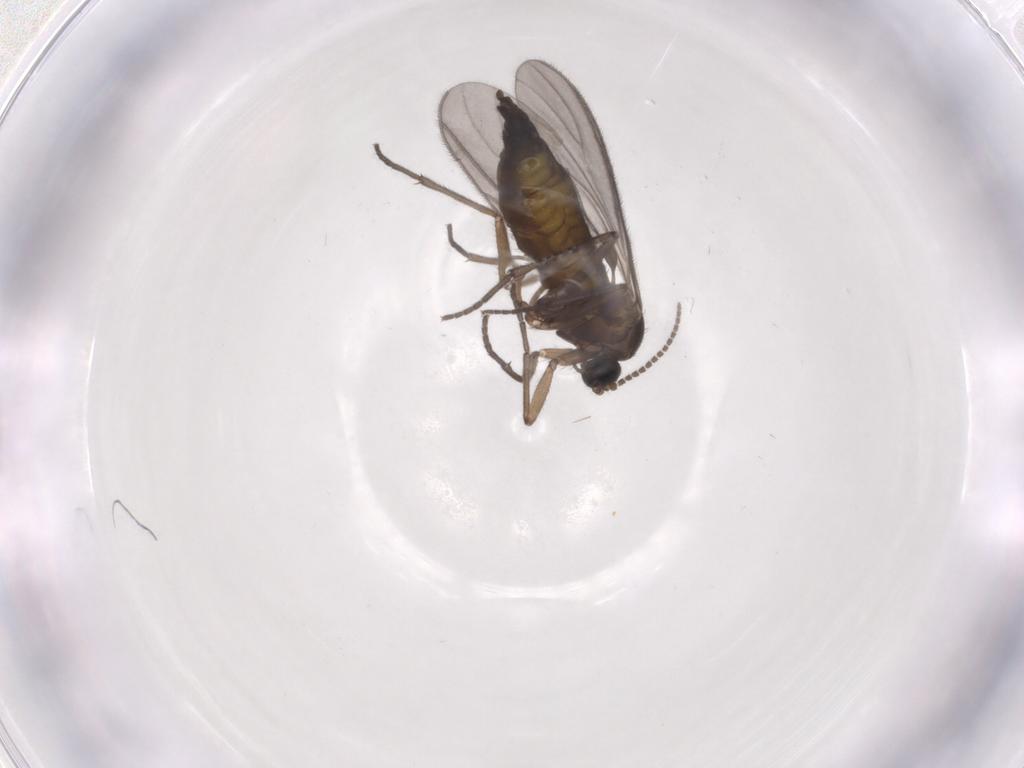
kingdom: Animalia
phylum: Arthropoda
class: Insecta
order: Diptera
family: Sciaridae
